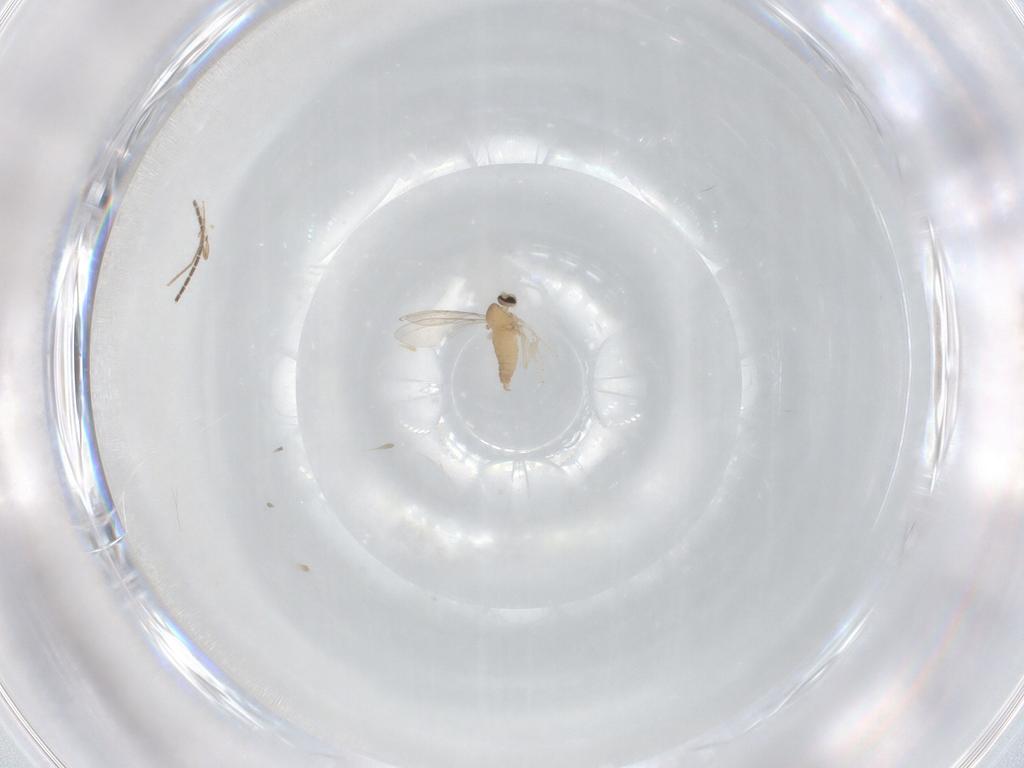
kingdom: Animalia
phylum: Arthropoda
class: Insecta
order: Diptera
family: Cecidomyiidae
